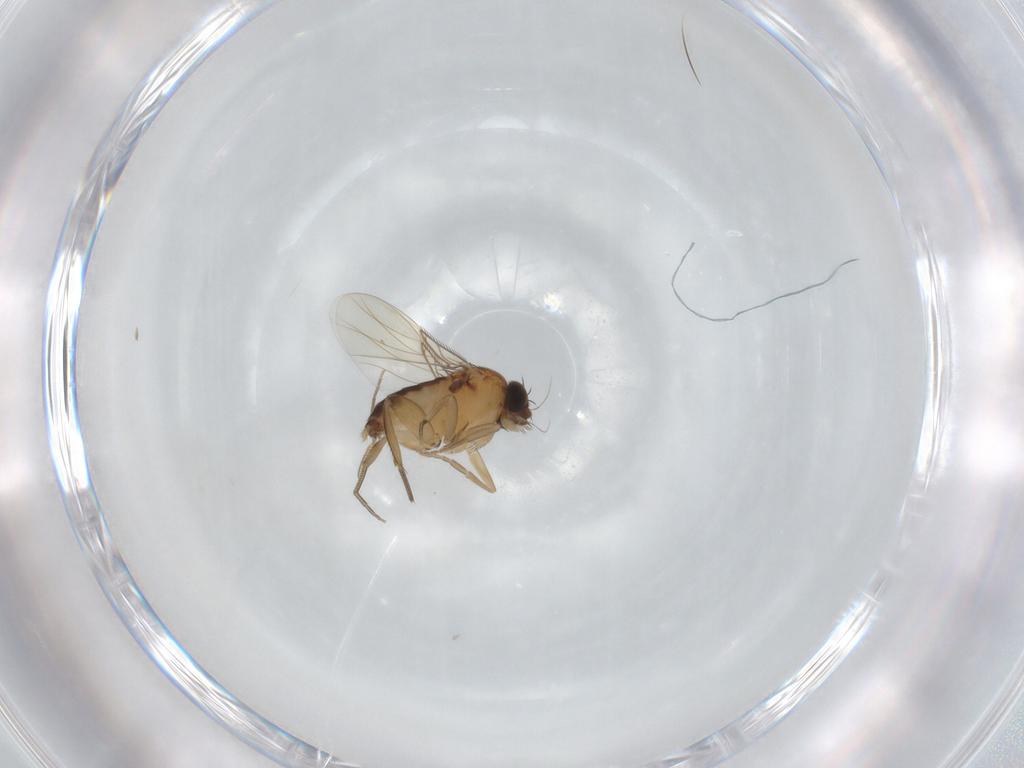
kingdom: Animalia
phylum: Arthropoda
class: Insecta
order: Diptera
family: Phoridae
